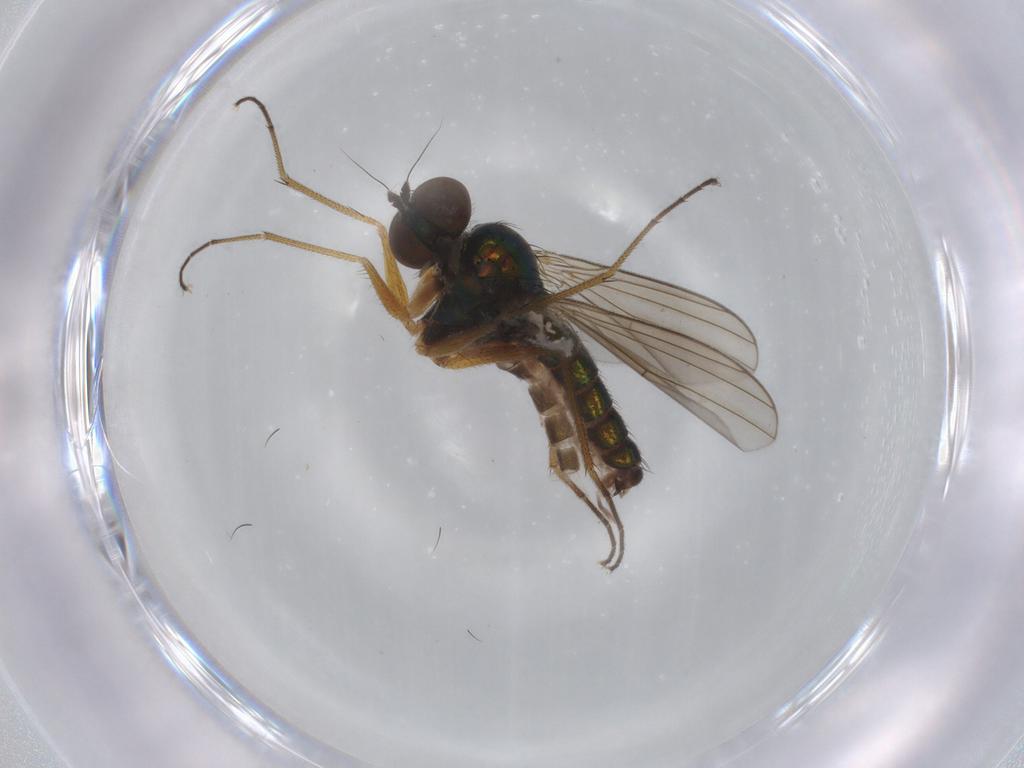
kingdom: Animalia
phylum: Arthropoda
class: Insecta
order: Diptera
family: Dolichopodidae
